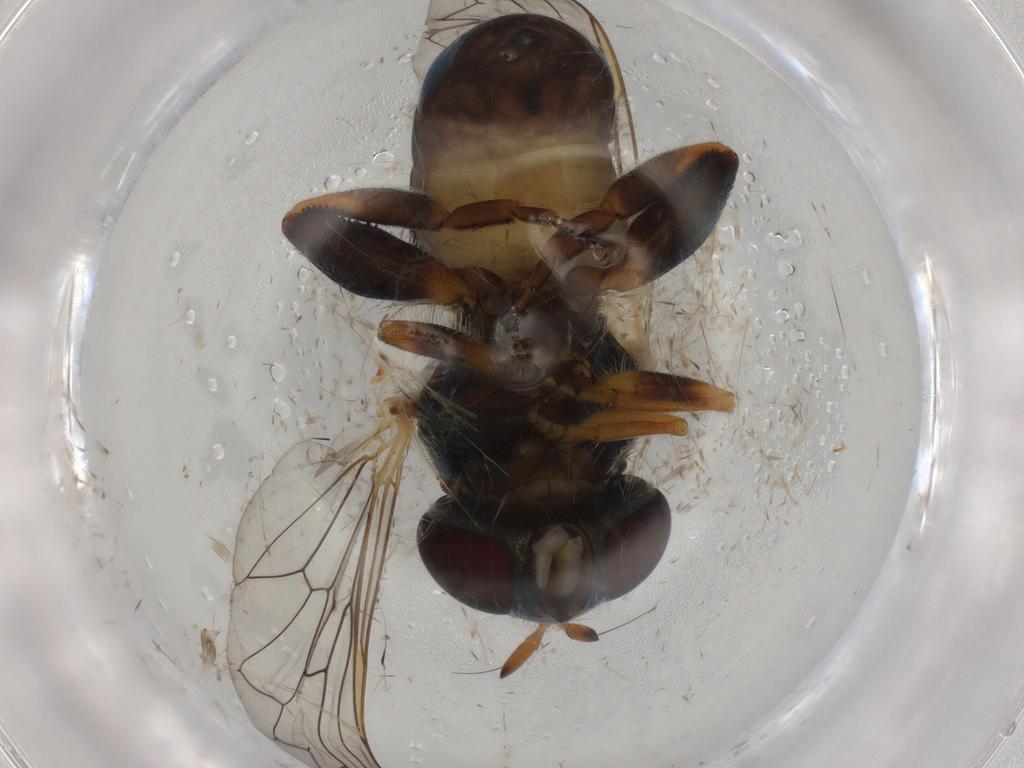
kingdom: Animalia
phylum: Arthropoda
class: Insecta
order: Diptera
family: Cecidomyiidae
